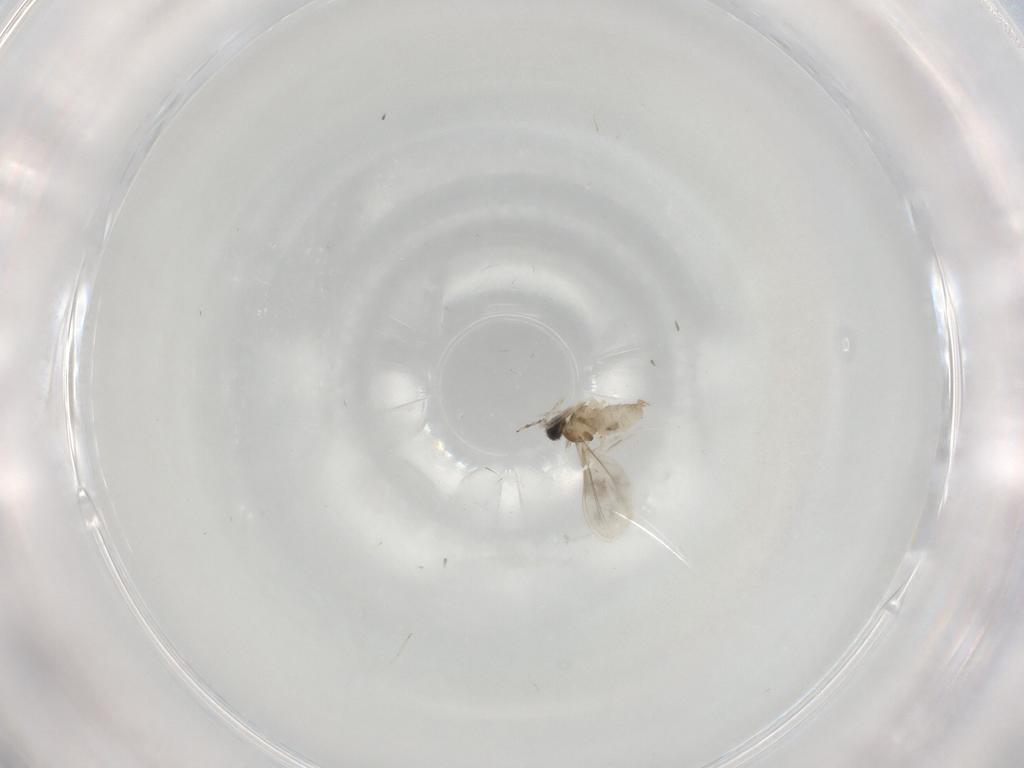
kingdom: Animalia
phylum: Arthropoda
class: Insecta
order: Diptera
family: Cecidomyiidae
